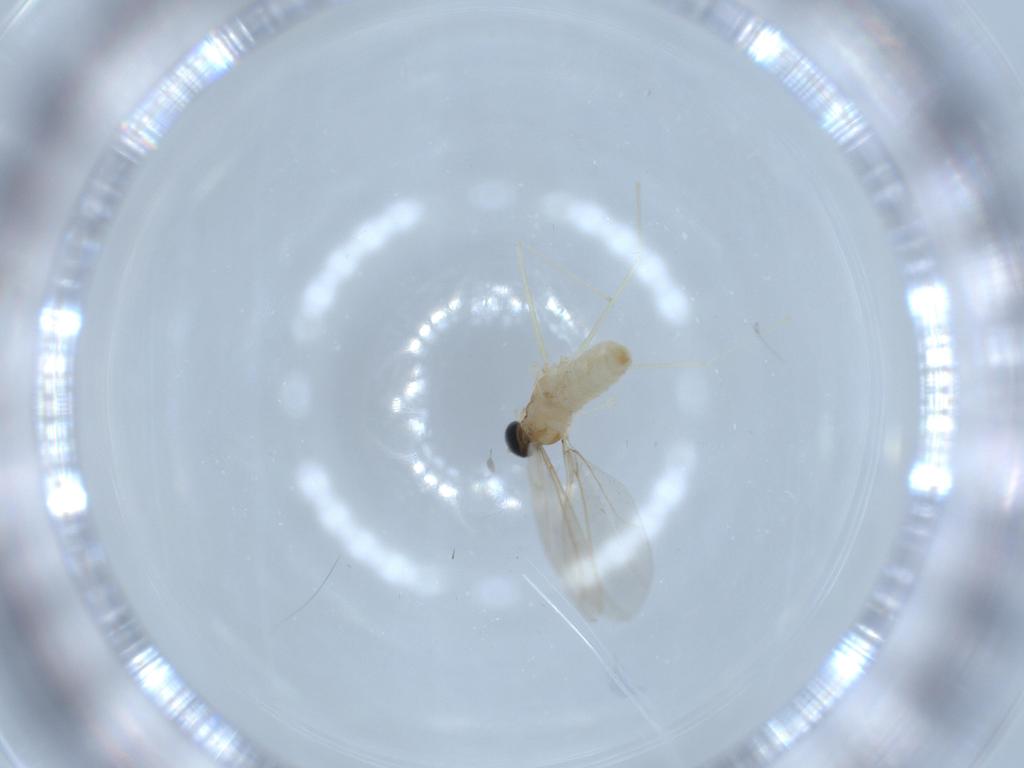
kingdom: Animalia
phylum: Arthropoda
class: Insecta
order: Diptera
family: Cecidomyiidae
